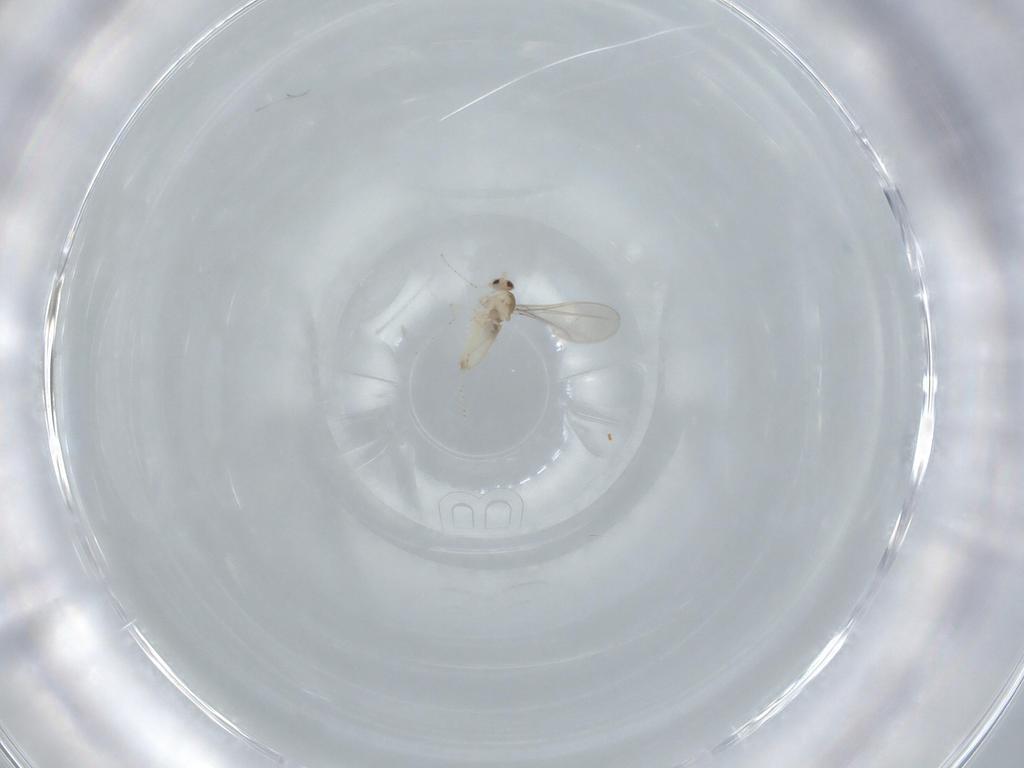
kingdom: Animalia
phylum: Arthropoda
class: Insecta
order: Diptera
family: Cecidomyiidae
